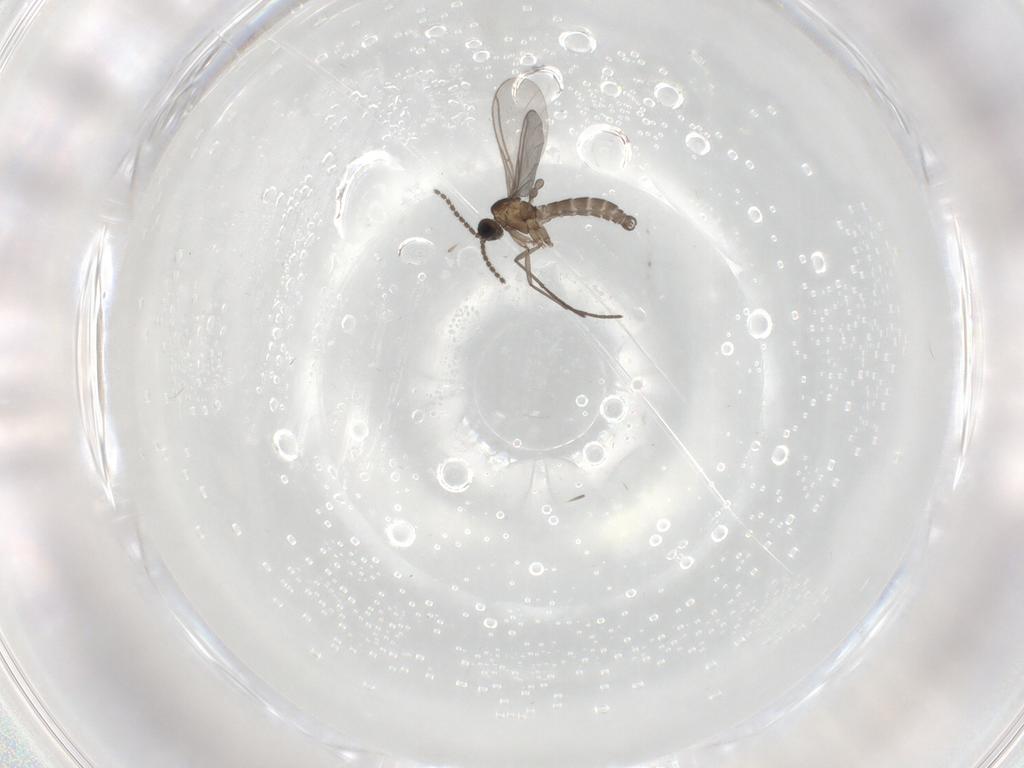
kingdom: Animalia
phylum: Arthropoda
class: Insecta
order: Diptera
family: Sciaridae
